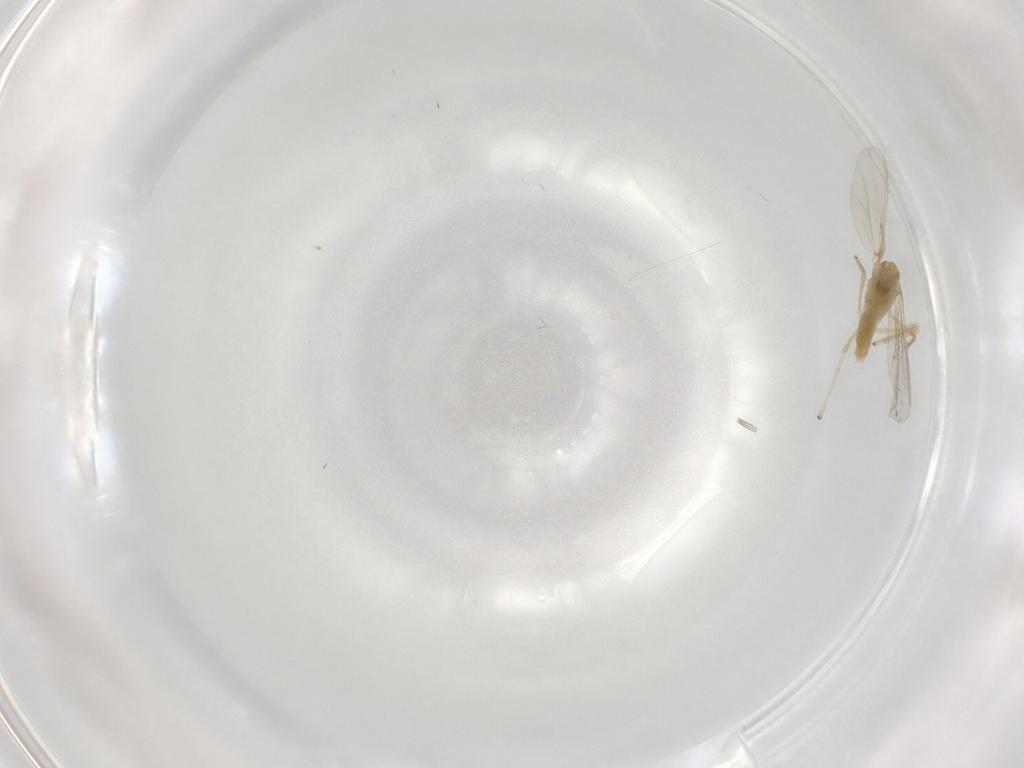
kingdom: Animalia
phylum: Arthropoda
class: Insecta
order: Diptera
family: Chironomidae
